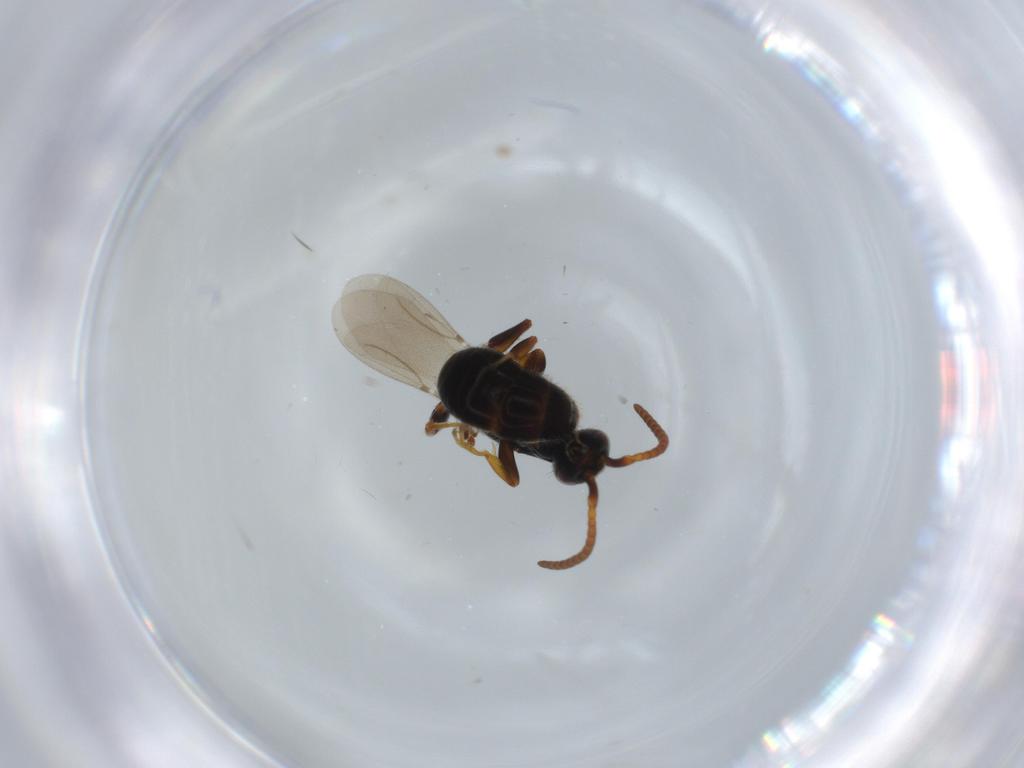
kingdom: Animalia
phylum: Arthropoda
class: Insecta
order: Hymenoptera
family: Bethylidae
